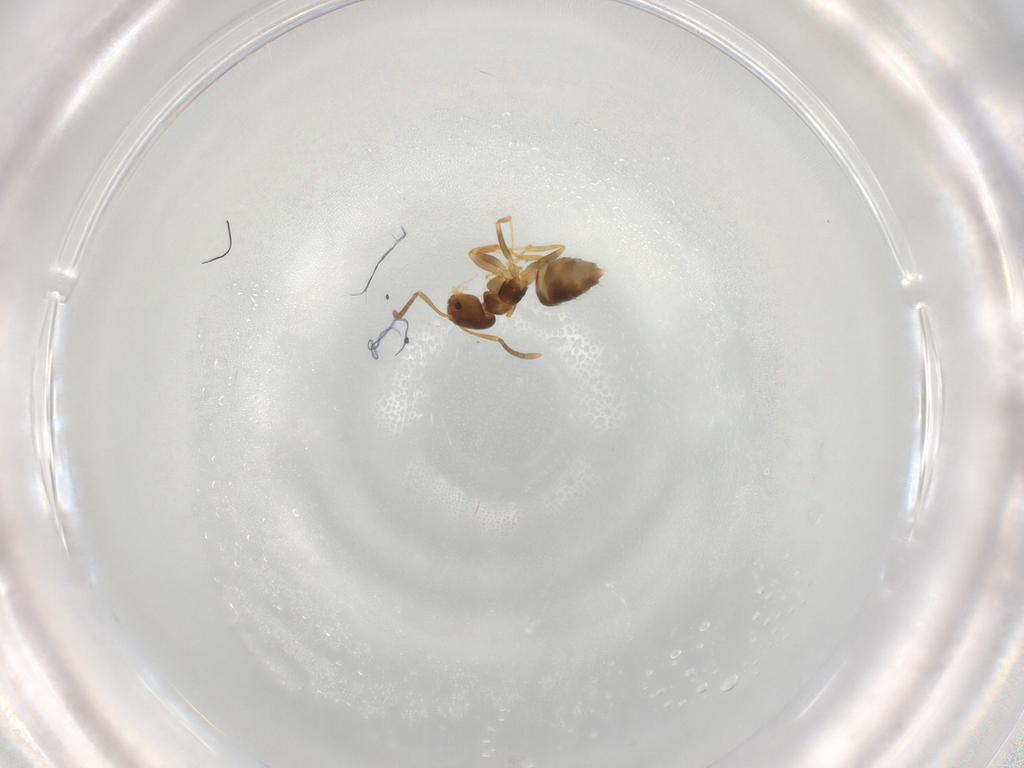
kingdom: Animalia
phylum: Arthropoda
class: Insecta
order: Hymenoptera
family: Formicidae
